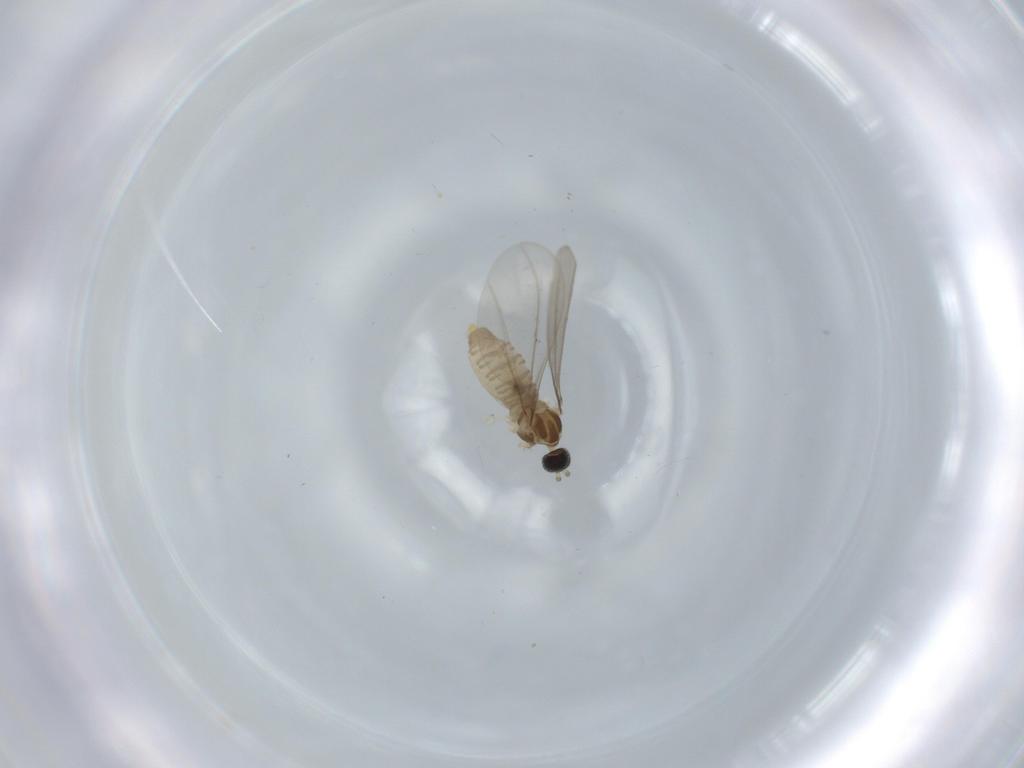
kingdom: Animalia
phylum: Arthropoda
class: Insecta
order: Diptera
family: Cecidomyiidae
